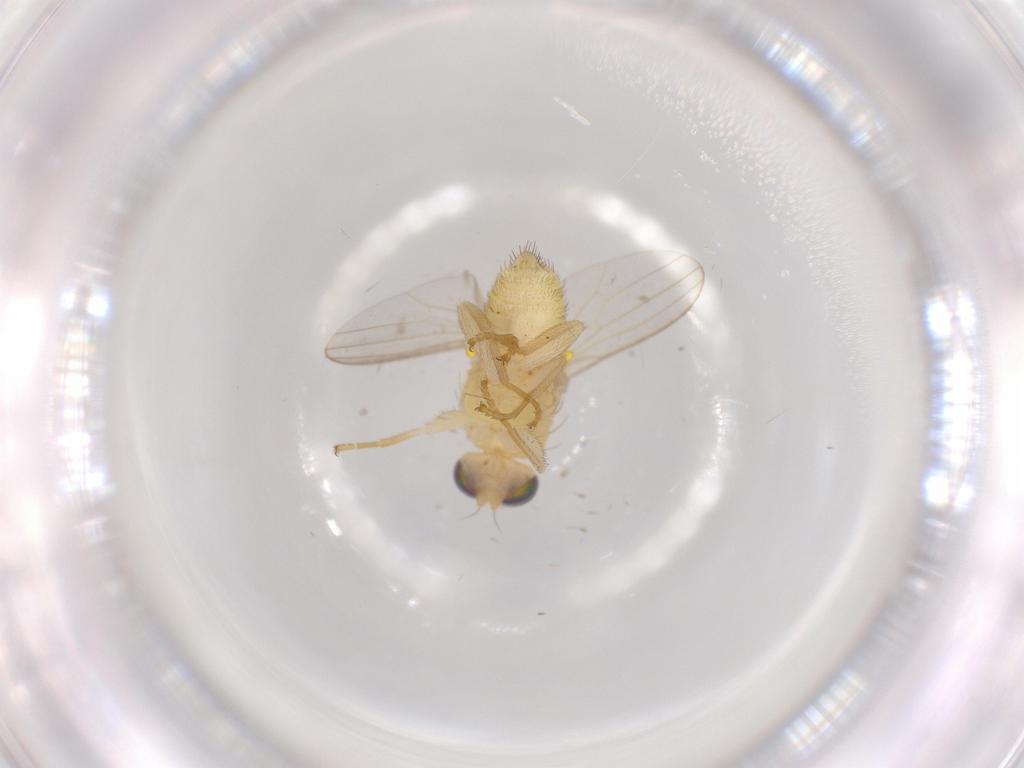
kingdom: Animalia
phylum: Arthropoda
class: Insecta
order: Diptera
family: Chyromyidae
